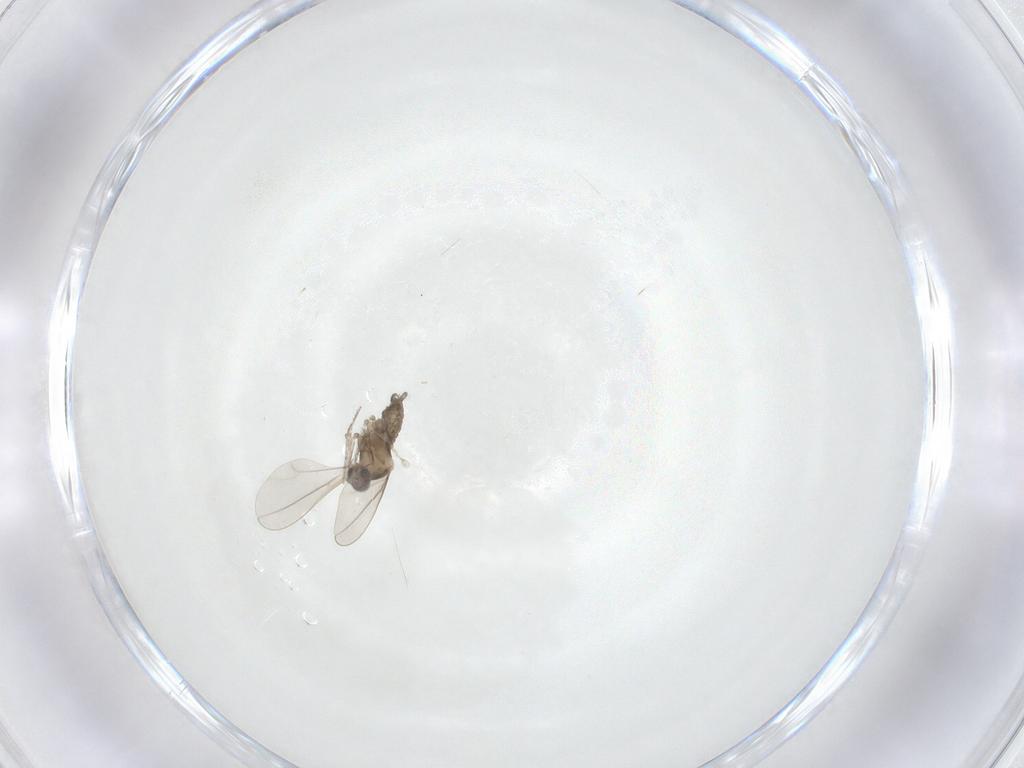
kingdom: Animalia
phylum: Arthropoda
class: Insecta
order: Diptera
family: Cecidomyiidae
